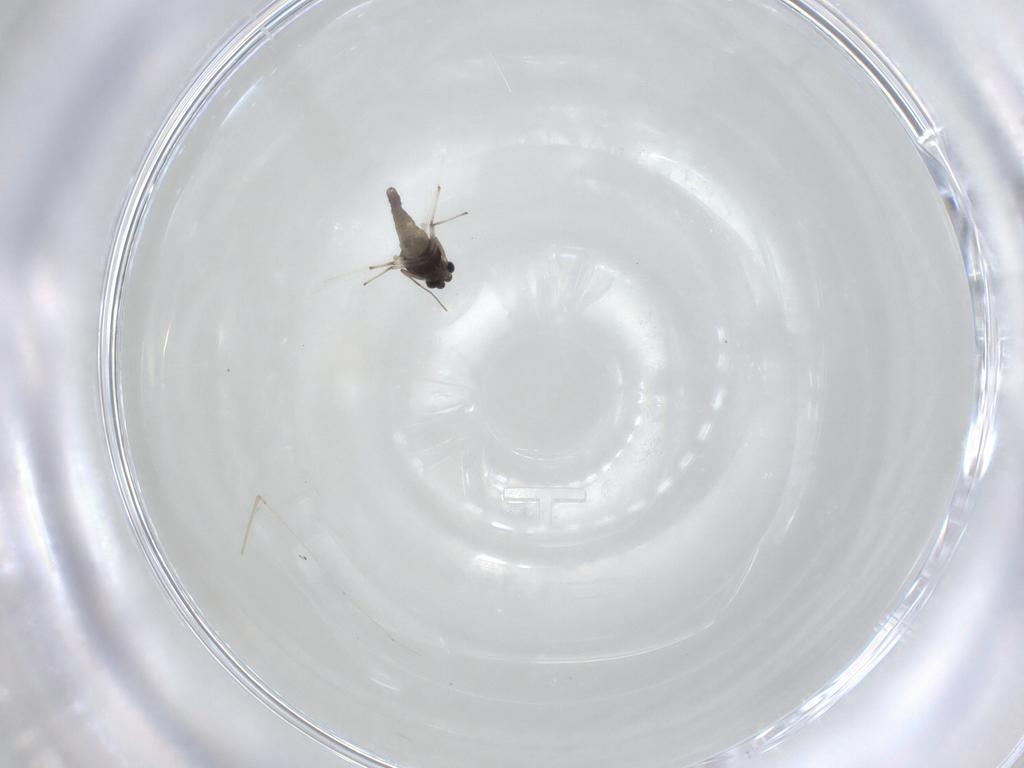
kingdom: Animalia
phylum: Arthropoda
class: Insecta
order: Diptera
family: Cecidomyiidae
